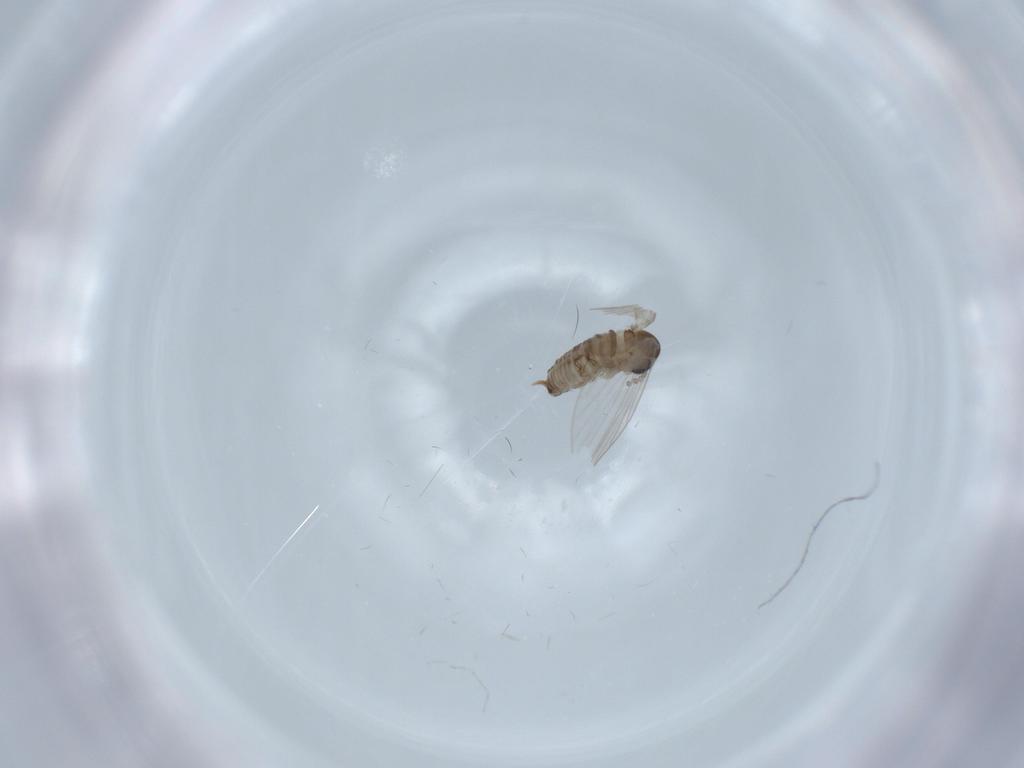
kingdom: Animalia
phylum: Arthropoda
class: Insecta
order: Diptera
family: Psychodidae
